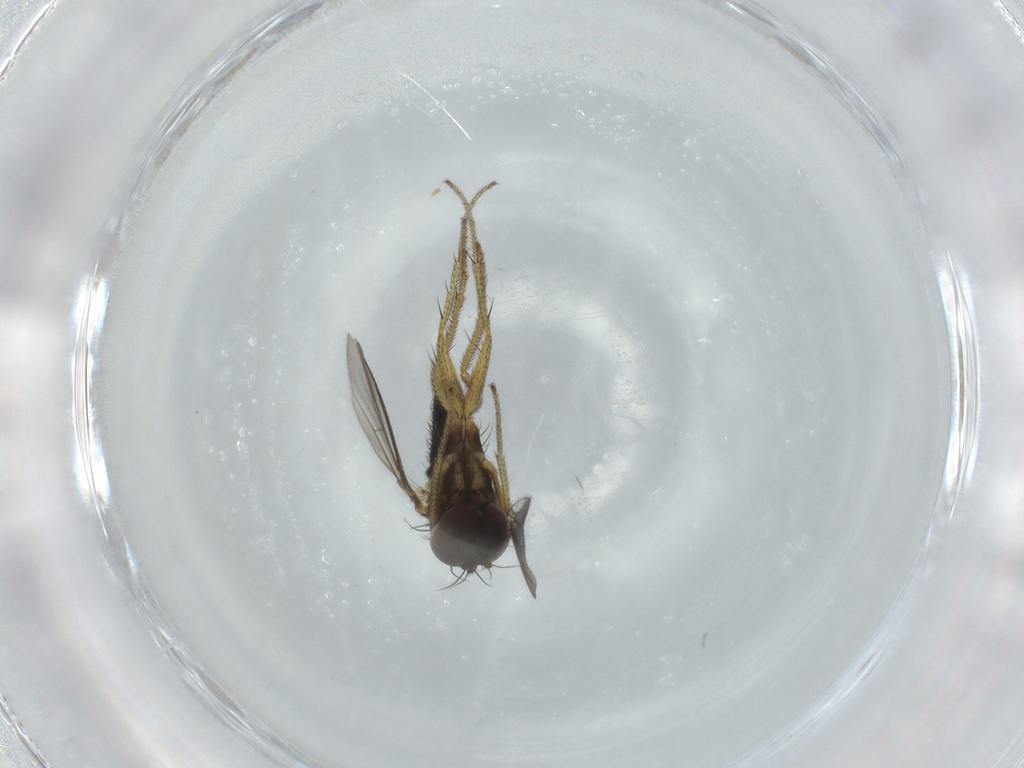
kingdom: Animalia
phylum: Arthropoda
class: Insecta
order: Diptera
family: Dolichopodidae
